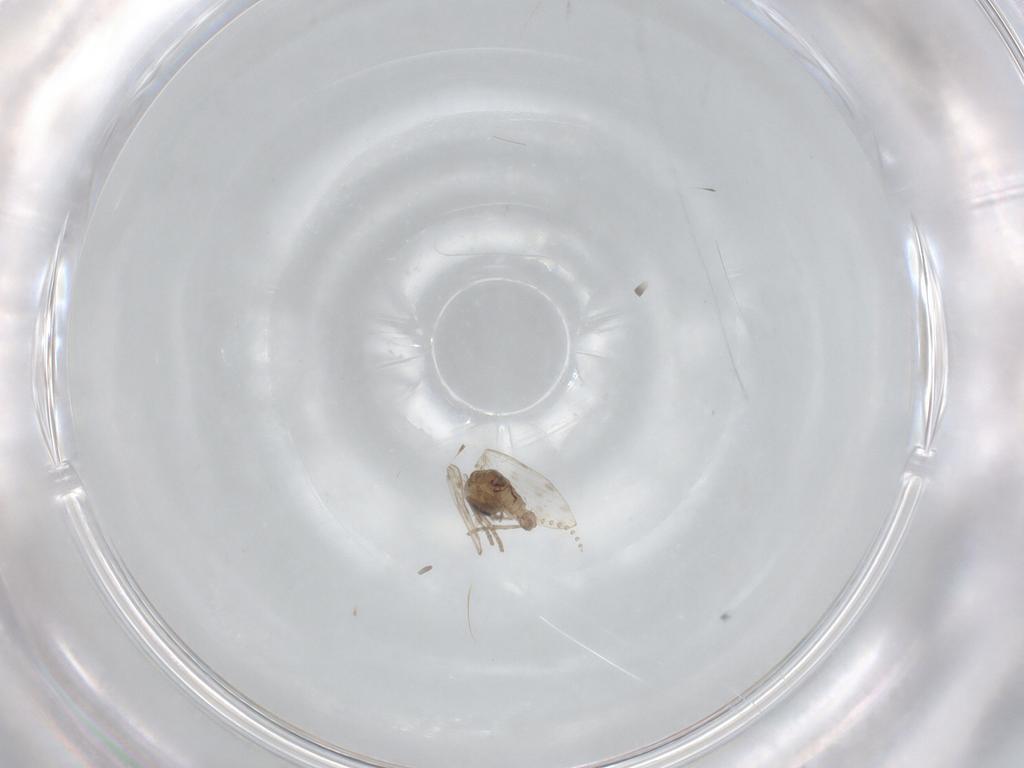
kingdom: Animalia
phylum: Arthropoda
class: Insecta
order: Diptera
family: Psychodidae
